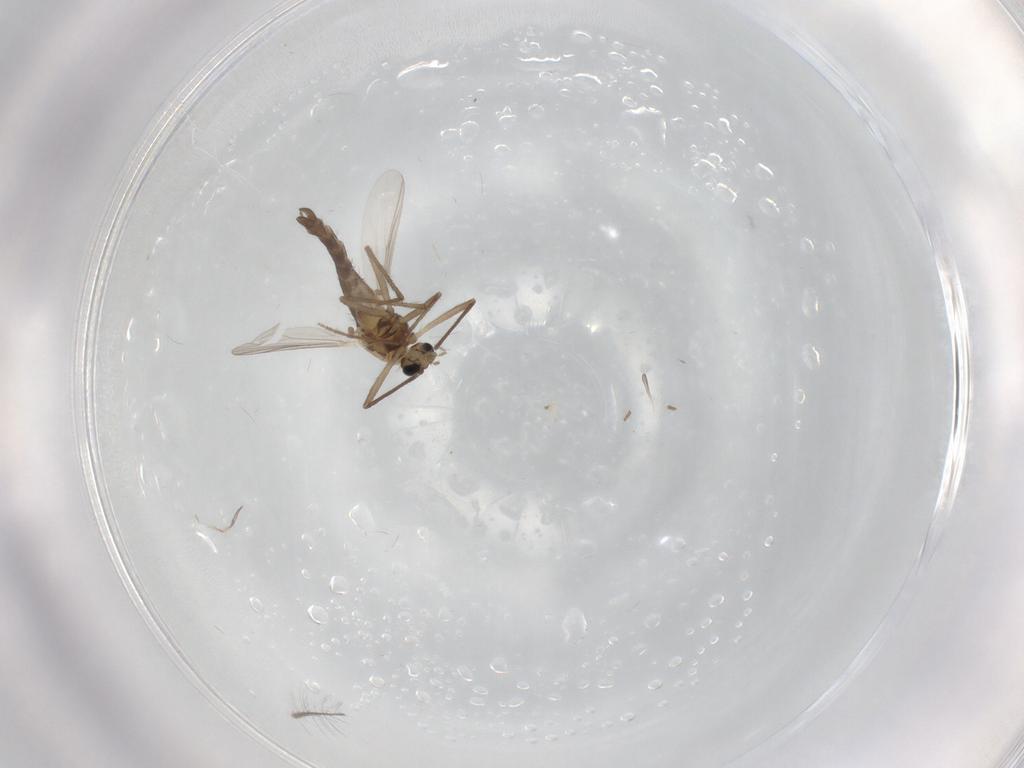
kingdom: Animalia
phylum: Arthropoda
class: Insecta
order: Diptera
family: Chironomidae
